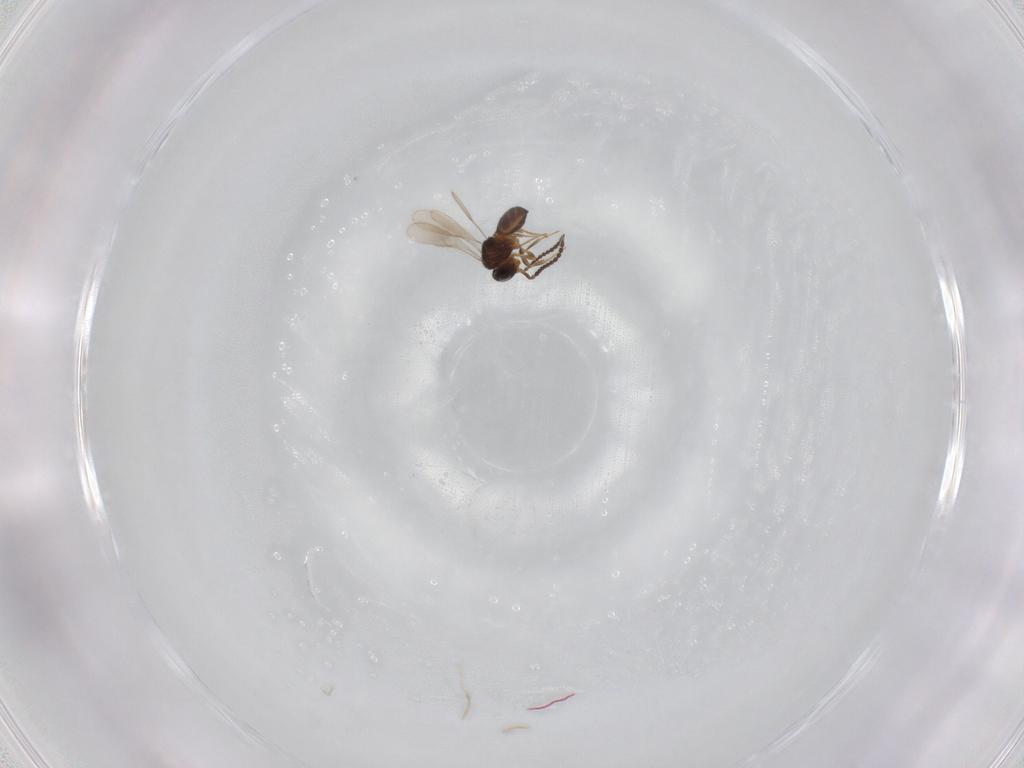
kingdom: Animalia
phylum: Arthropoda
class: Insecta
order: Hymenoptera
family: Scelionidae
